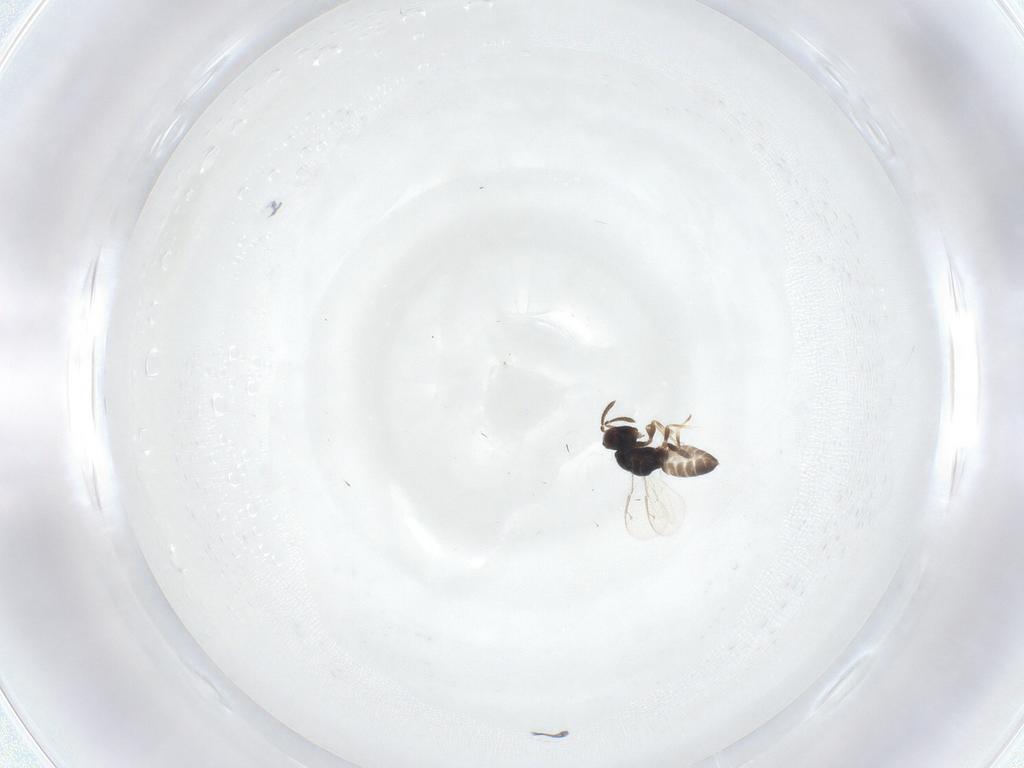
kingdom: Animalia
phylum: Arthropoda
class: Insecta
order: Hymenoptera
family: Pteromalidae
